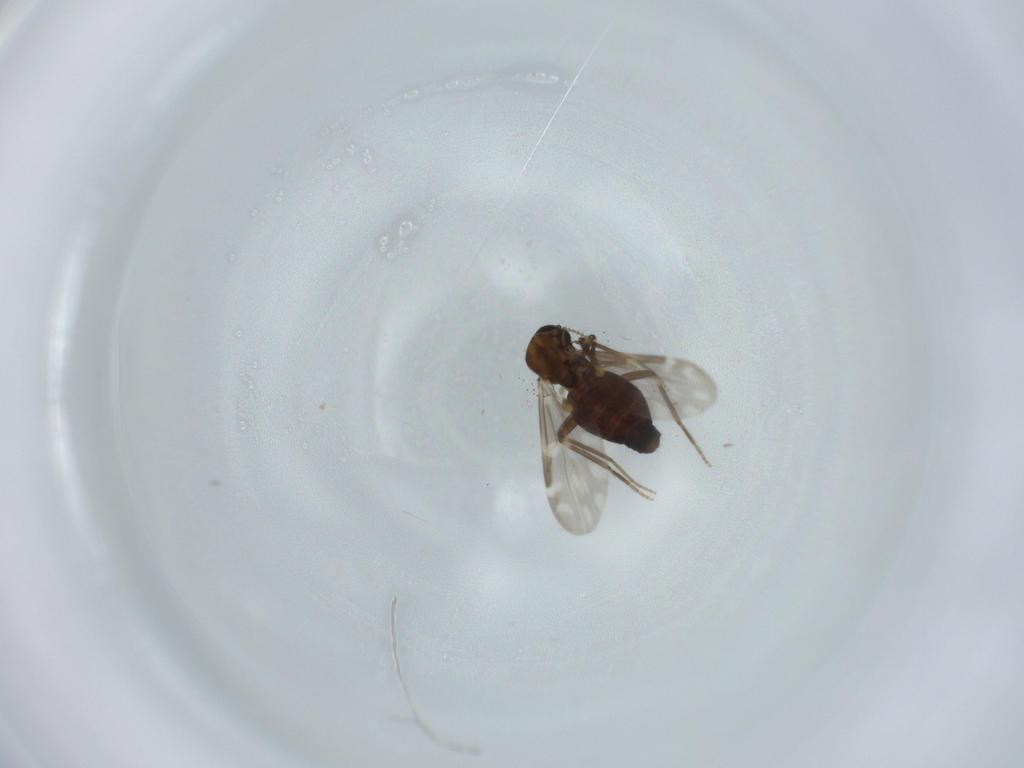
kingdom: Animalia
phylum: Arthropoda
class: Insecta
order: Diptera
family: Ceratopogonidae
